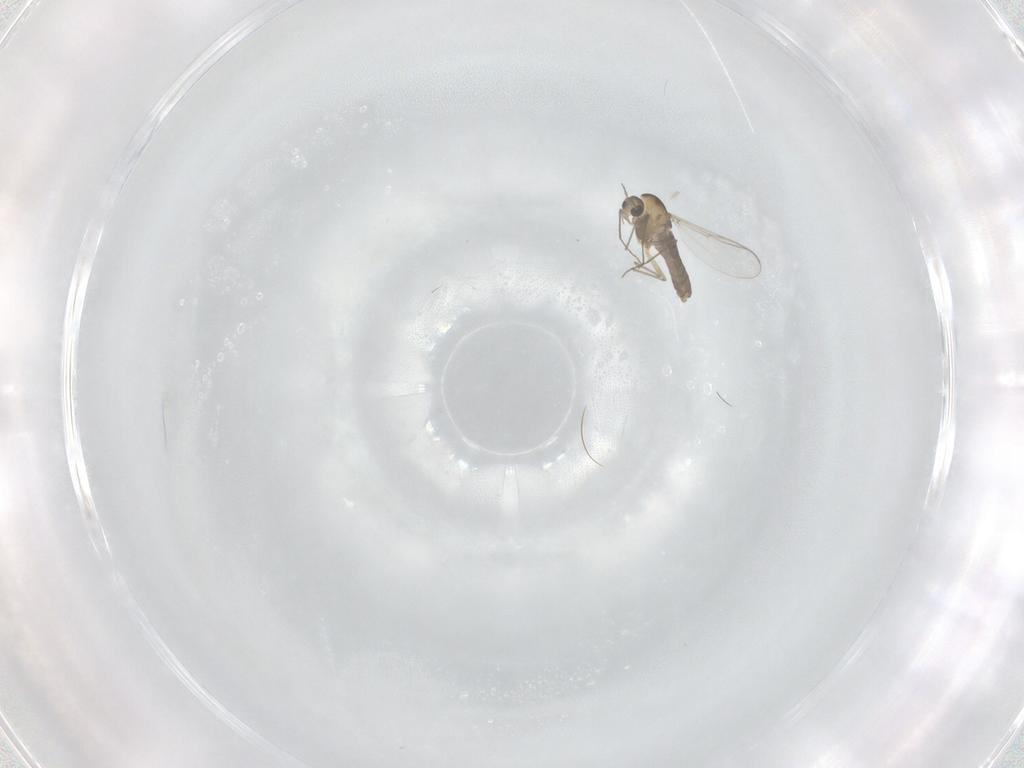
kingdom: Animalia
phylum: Arthropoda
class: Insecta
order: Diptera
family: Chironomidae
